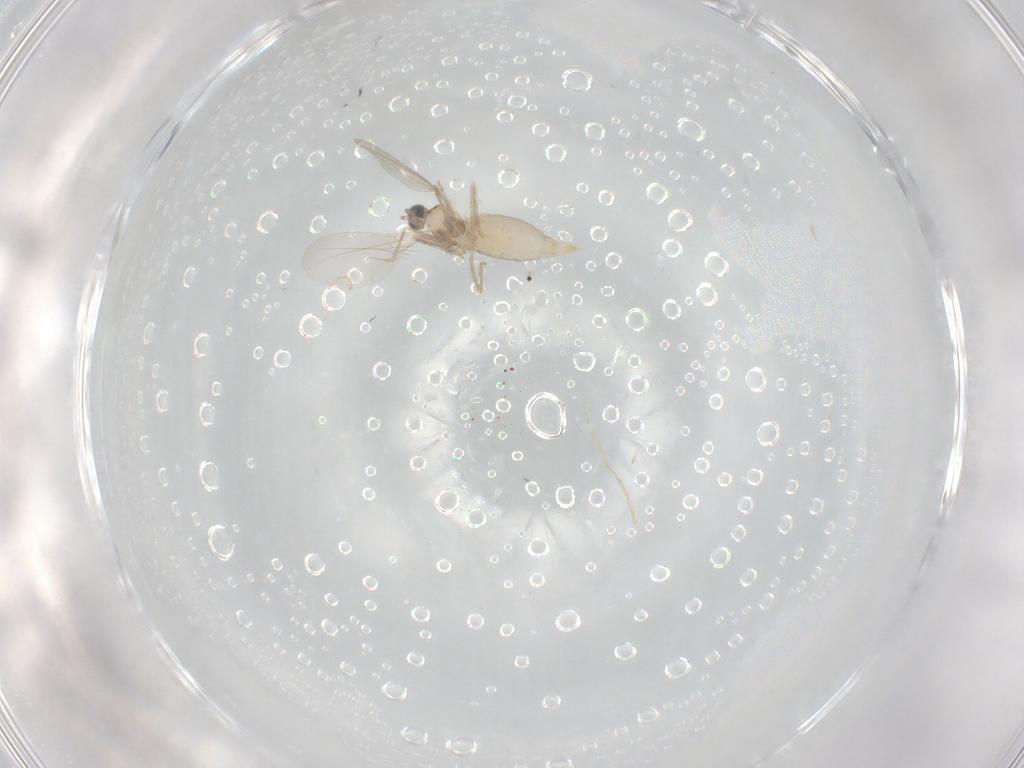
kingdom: Animalia
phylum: Arthropoda
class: Insecta
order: Diptera
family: Cecidomyiidae
